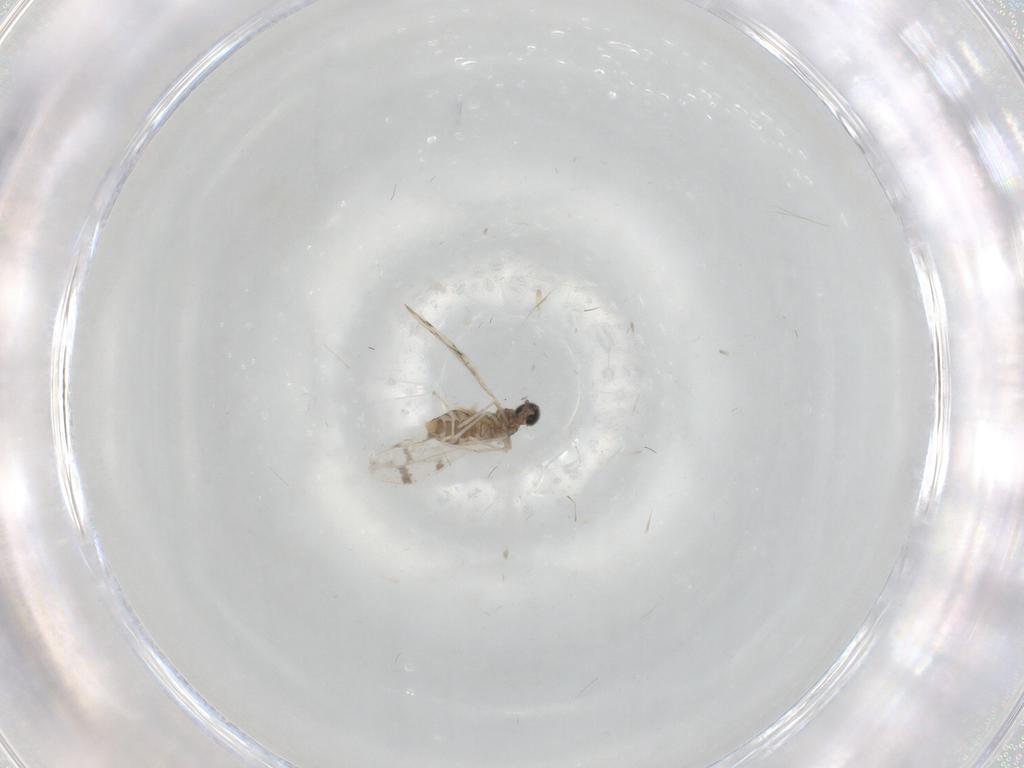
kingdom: Animalia
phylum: Arthropoda
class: Insecta
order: Diptera
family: Cecidomyiidae
